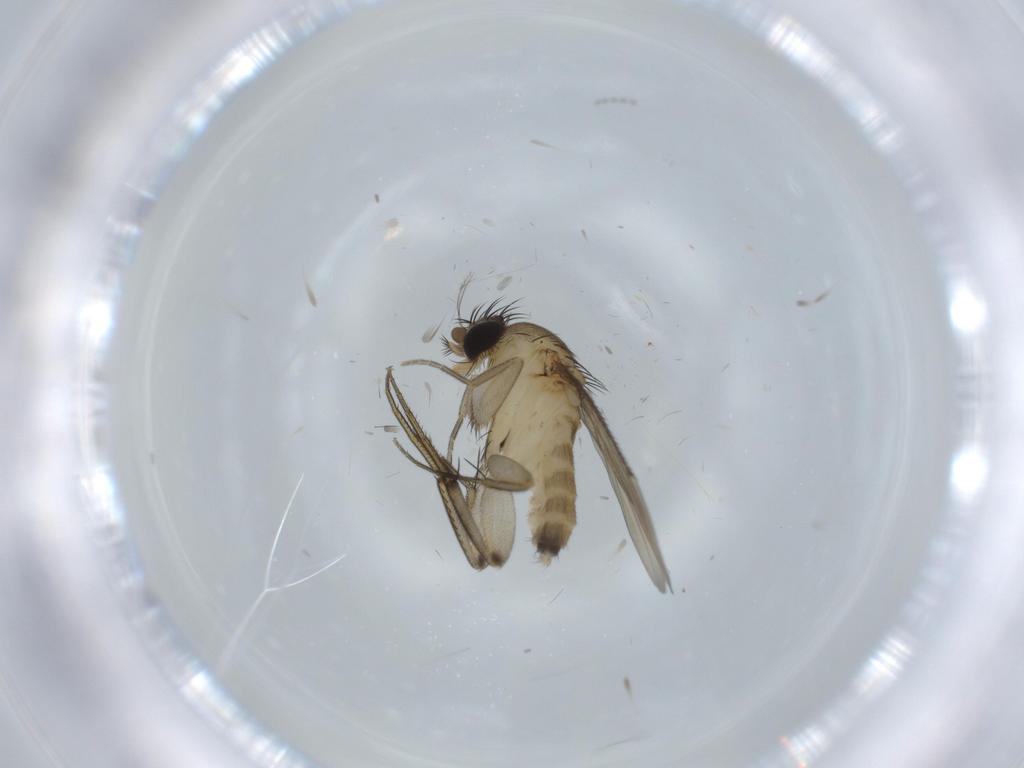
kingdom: Animalia
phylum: Arthropoda
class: Insecta
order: Diptera
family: Phoridae
